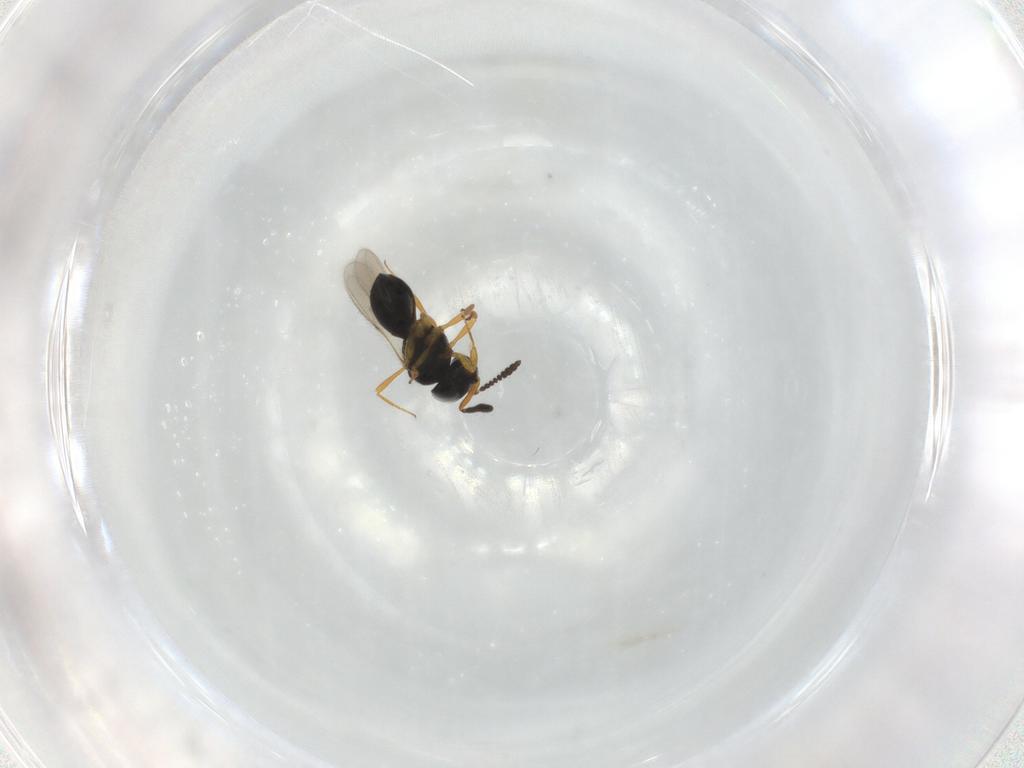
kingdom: Animalia
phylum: Arthropoda
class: Insecta
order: Hymenoptera
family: Scelionidae
